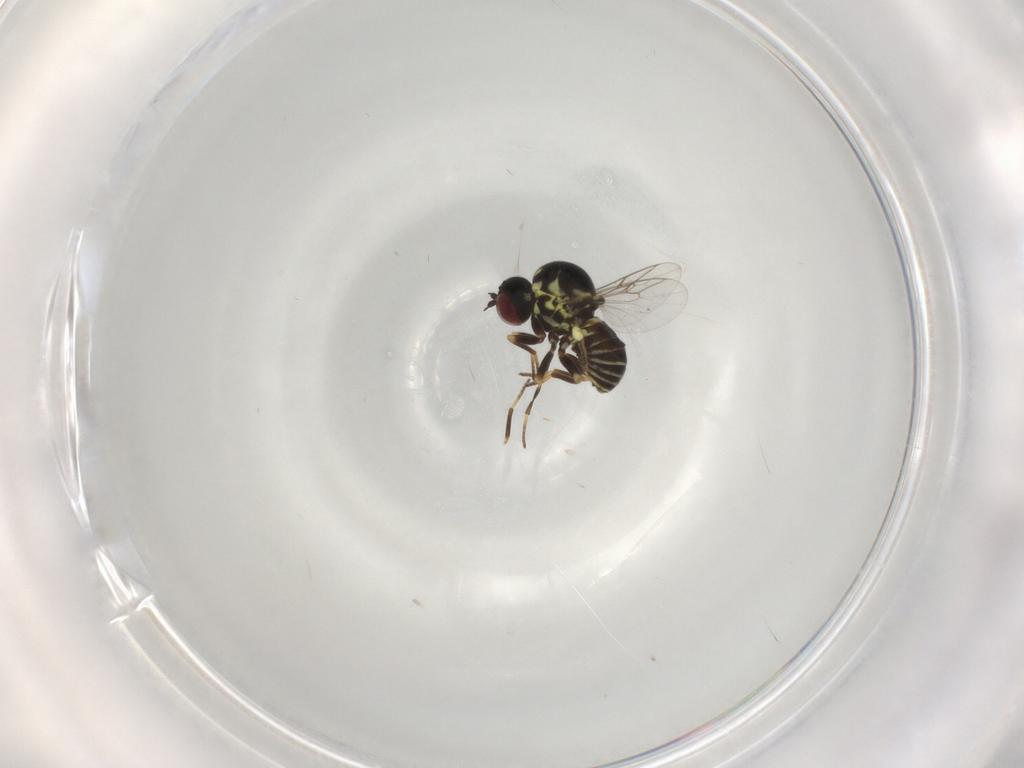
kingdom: Animalia
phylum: Arthropoda
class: Insecta
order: Diptera
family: Mythicomyiidae
